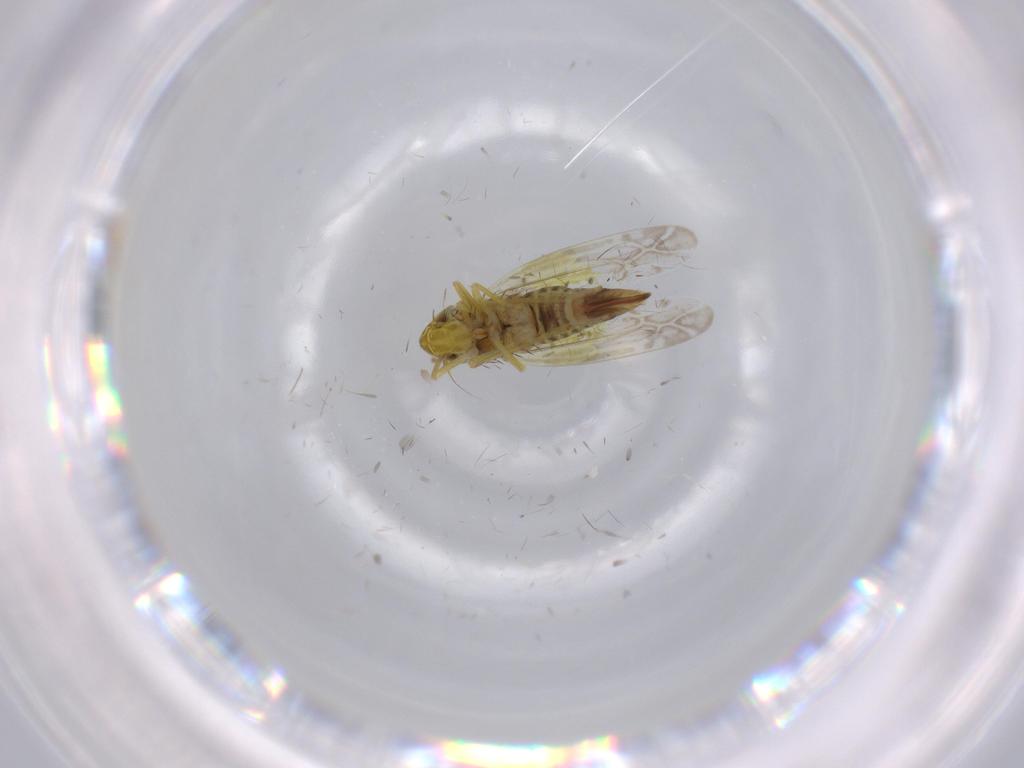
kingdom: Animalia
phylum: Arthropoda
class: Insecta
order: Hemiptera
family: Cicadellidae
